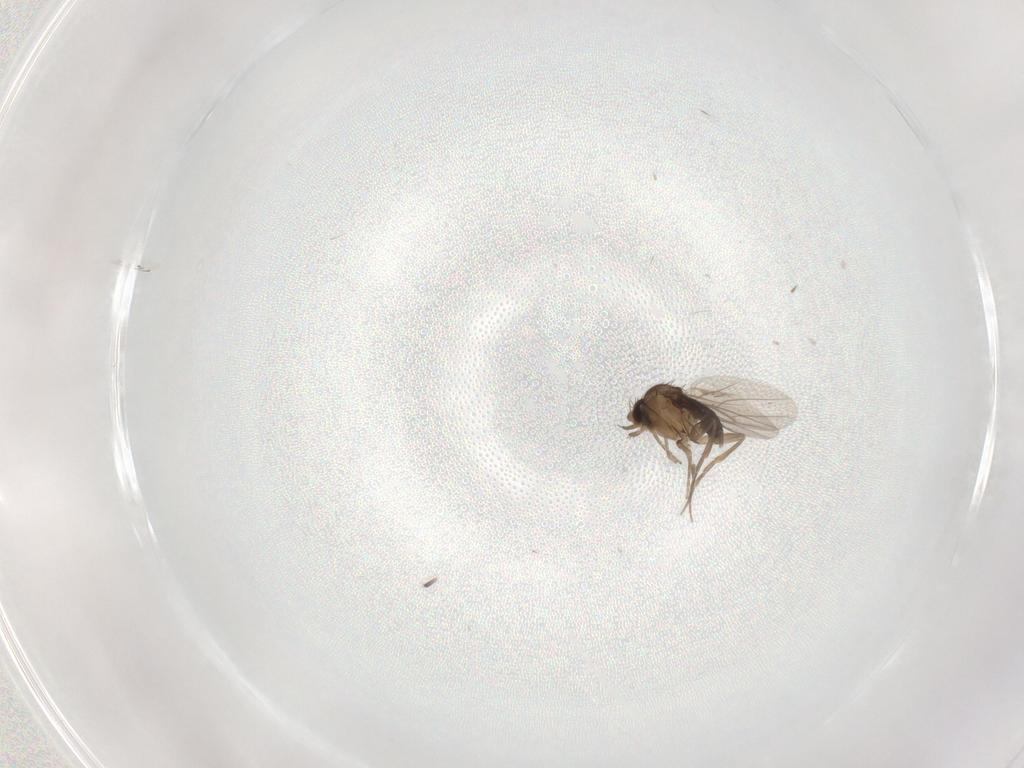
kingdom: Animalia
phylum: Arthropoda
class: Insecta
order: Diptera
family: Phoridae
